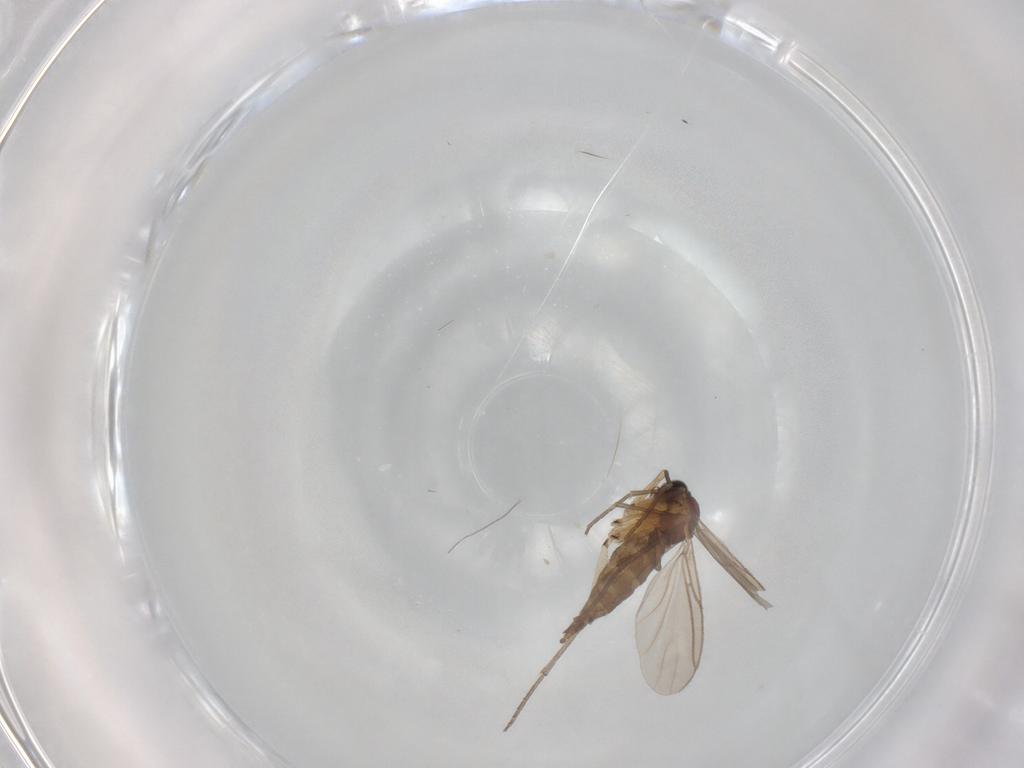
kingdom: Animalia
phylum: Arthropoda
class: Insecta
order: Diptera
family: Sciaridae
